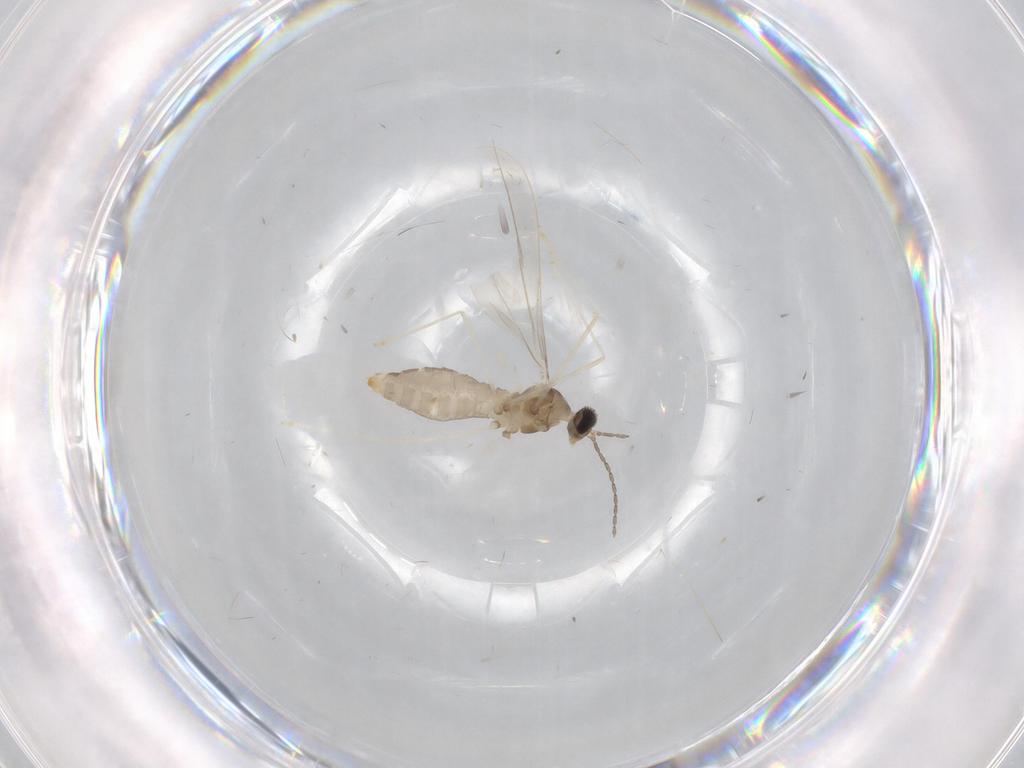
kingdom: Animalia
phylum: Arthropoda
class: Insecta
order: Diptera
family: Cecidomyiidae
